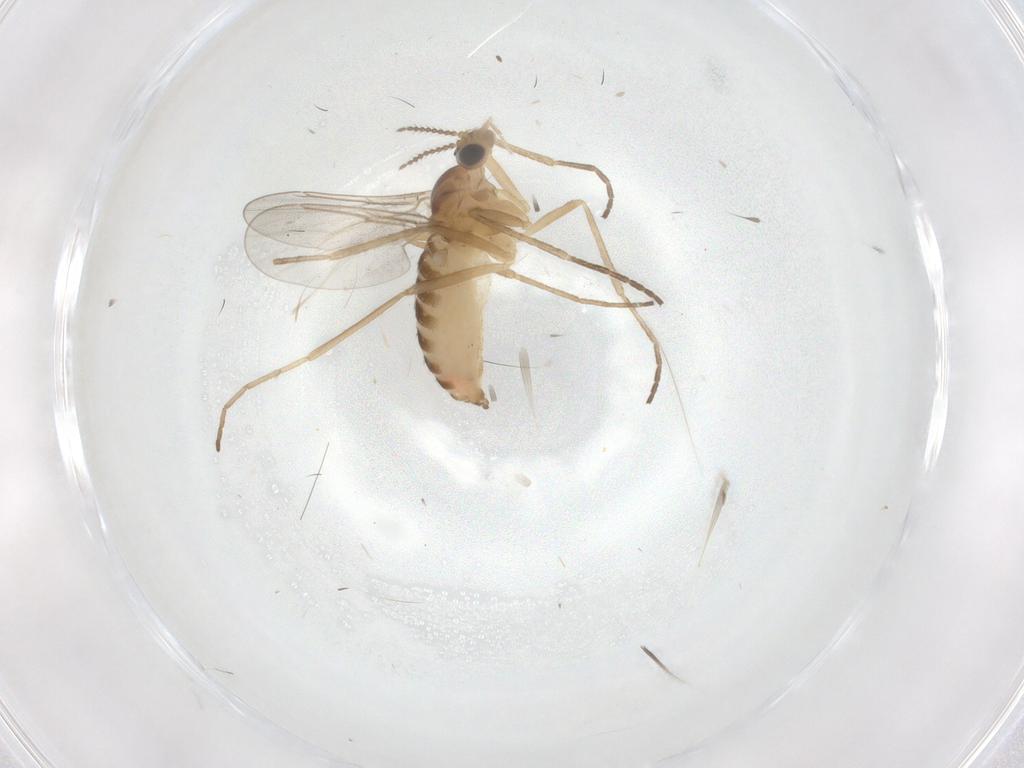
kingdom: Animalia
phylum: Arthropoda
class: Insecta
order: Diptera
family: Cecidomyiidae
